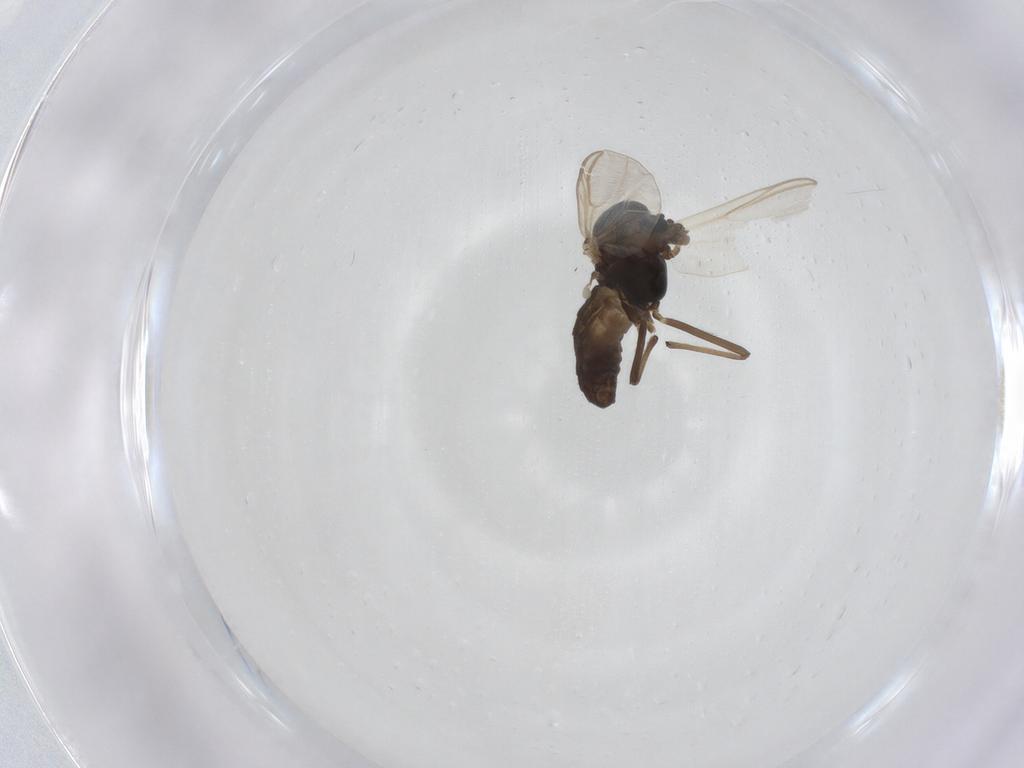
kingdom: Animalia
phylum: Arthropoda
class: Insecta
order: Diptera
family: Chironomidae
